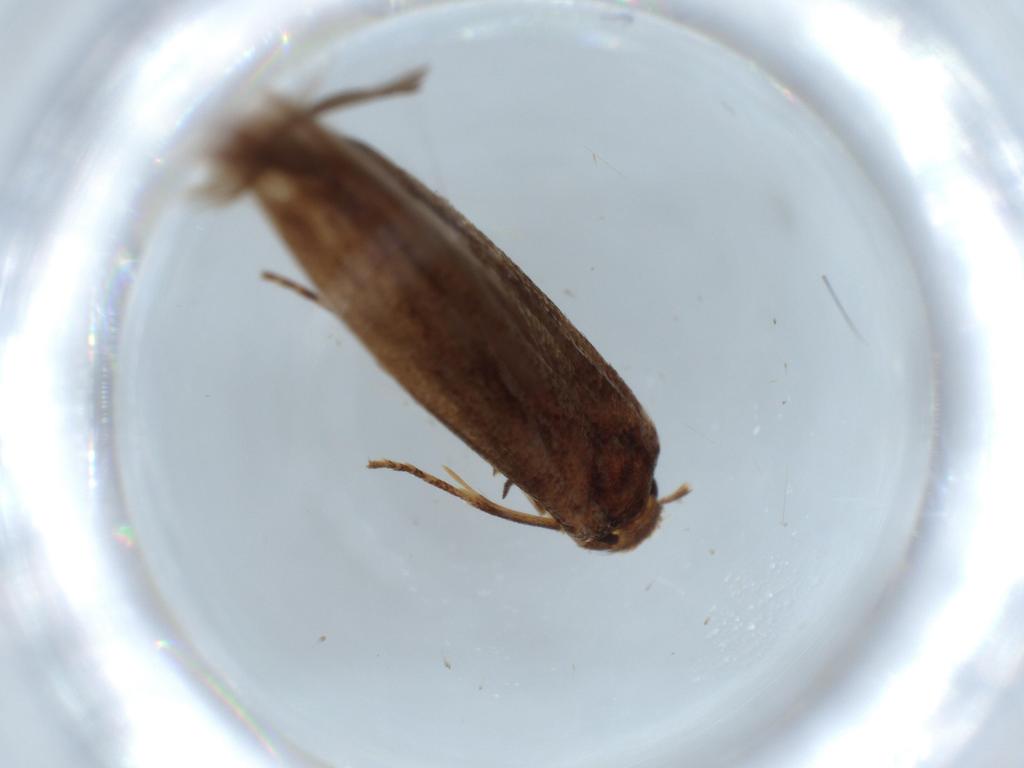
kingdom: Animalia
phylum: Arthropoda
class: Insecta
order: Lepidoptera
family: Stathmopodidae
